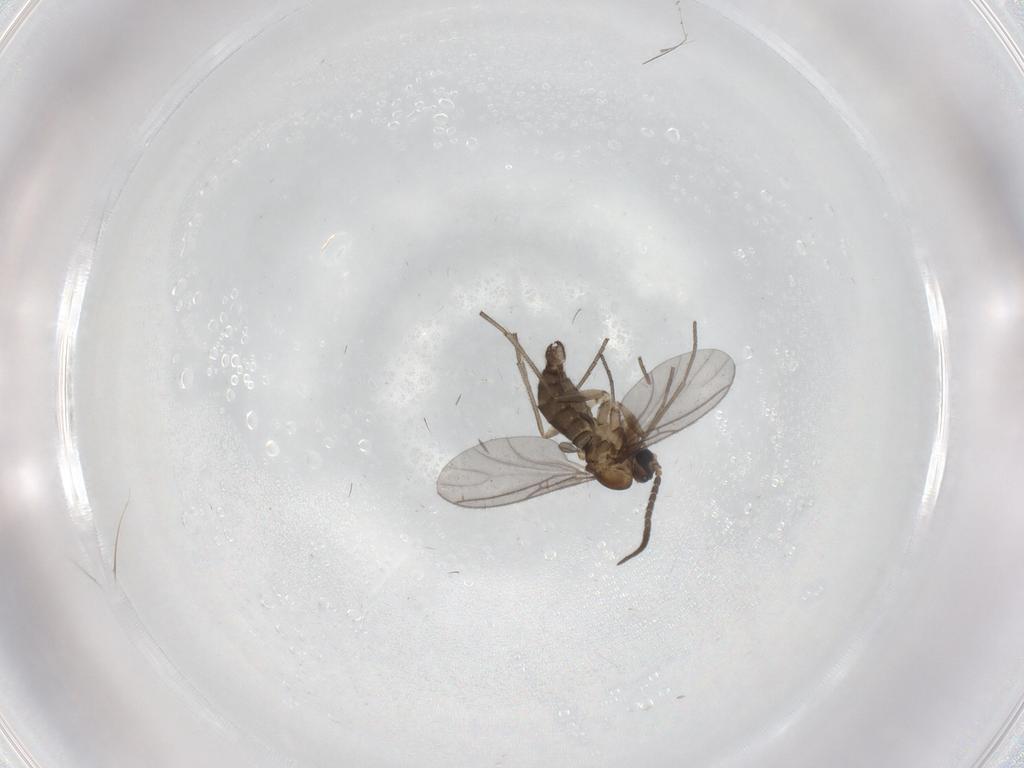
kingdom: Animalia
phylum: Arthropoda
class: Insecta
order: Diptera
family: Sciaridae
